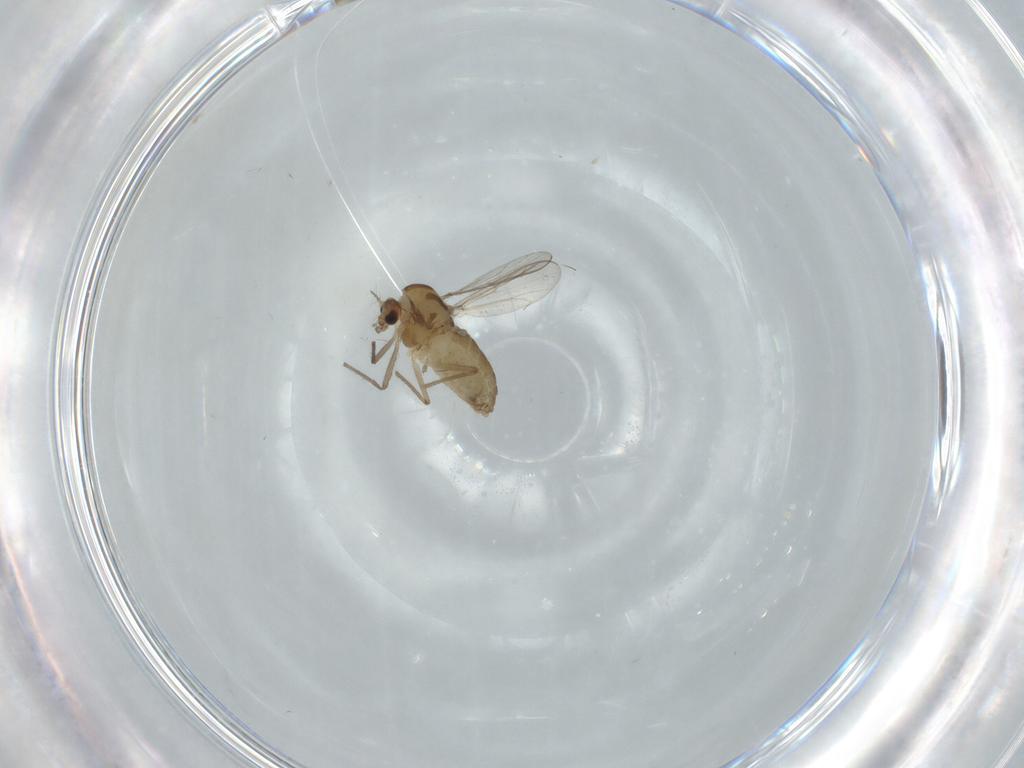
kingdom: Animalia
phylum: Arthropoda
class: Insecta
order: Diptera
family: Chironomidae
